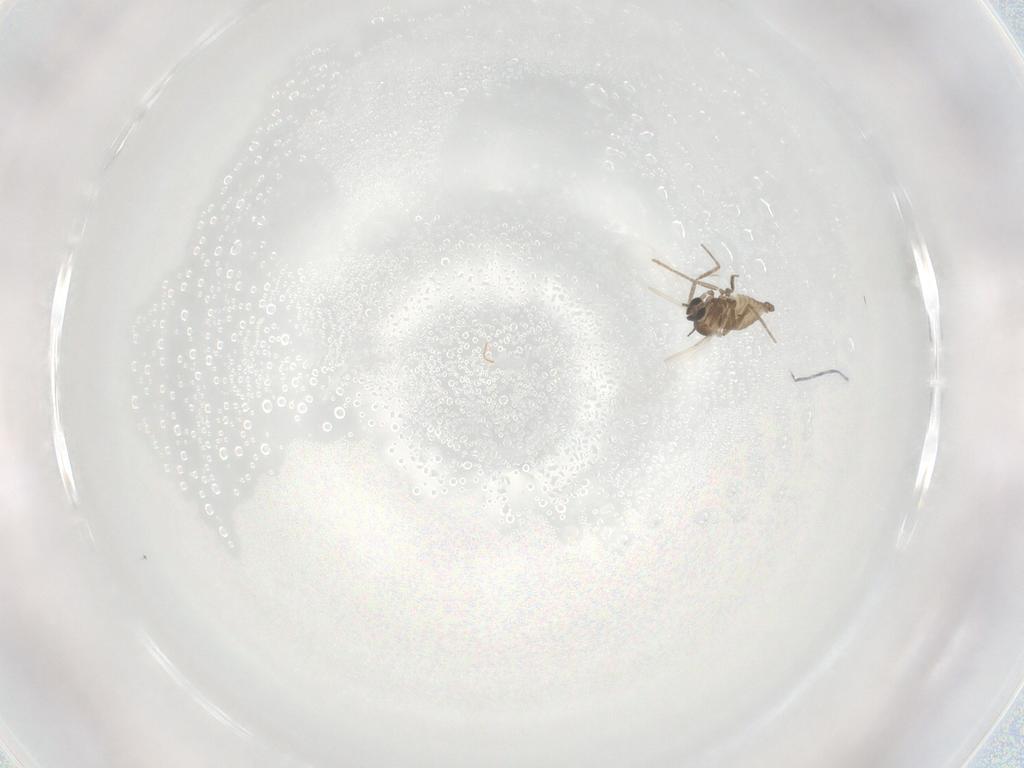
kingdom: Animalia
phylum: Arthropoda
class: Insecta
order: Diptera
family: Cecidomyiidae
